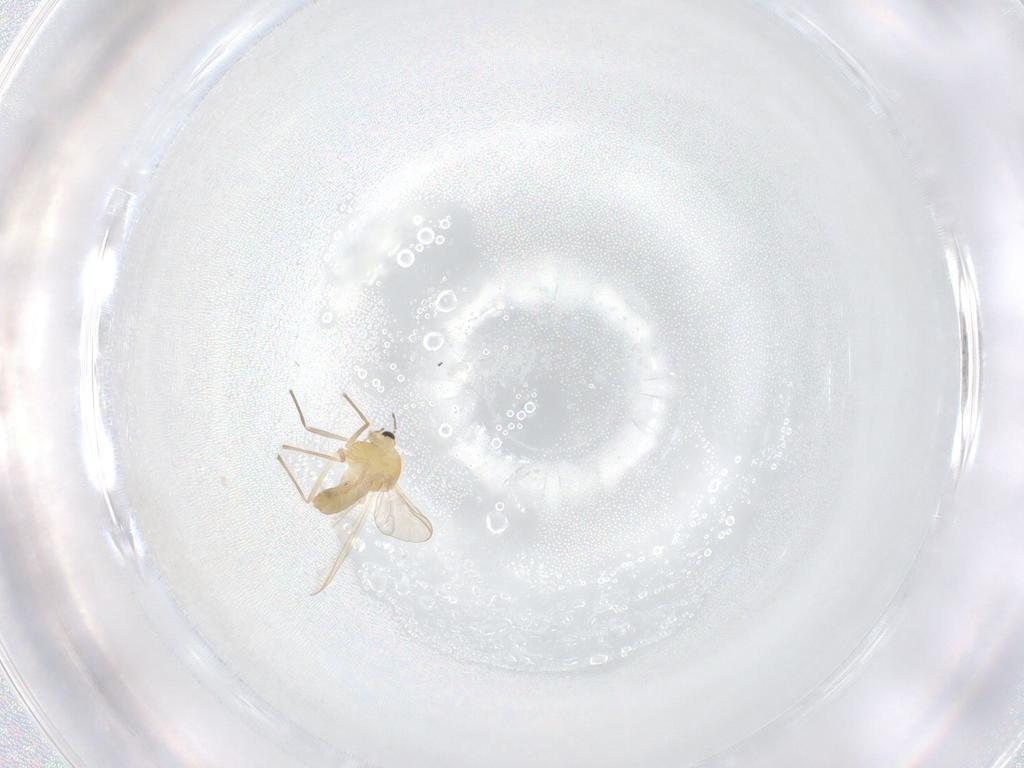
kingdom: Animalia
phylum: Arthropoda
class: Insecta
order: Diptera
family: Chironomidae
